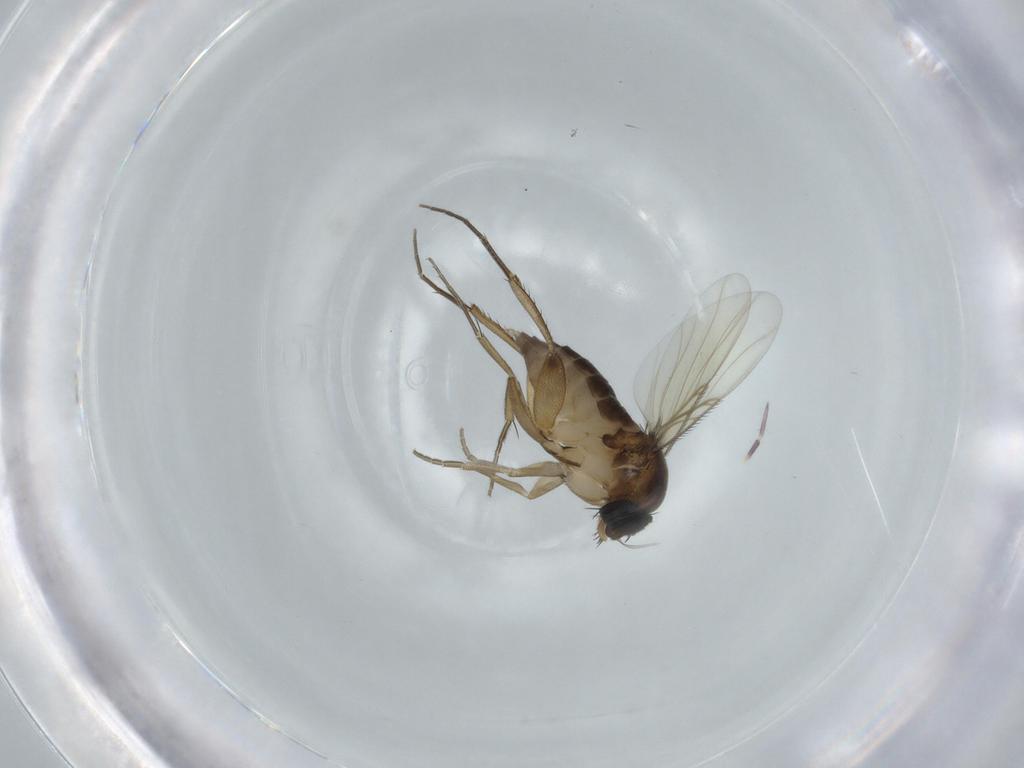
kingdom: Animalia
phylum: Arthropoda
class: Insecta
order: Diptera
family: Phoridae
